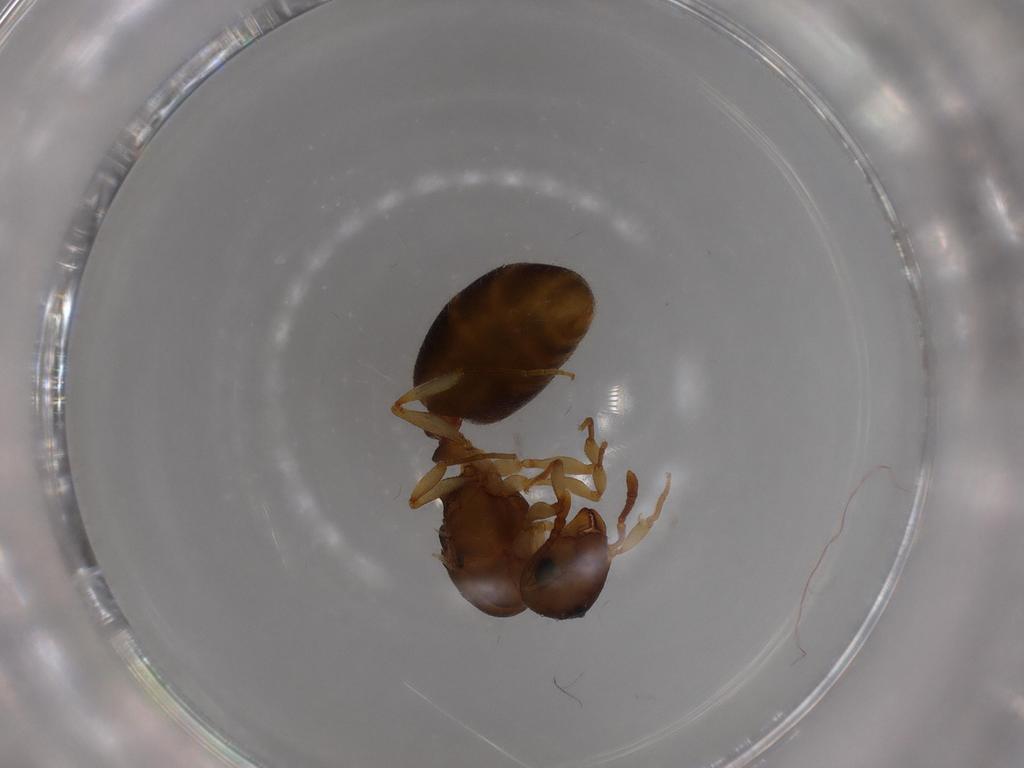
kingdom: Animalia
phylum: Arthropoda
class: Insecta
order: Hymenoptera
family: Formicidae
